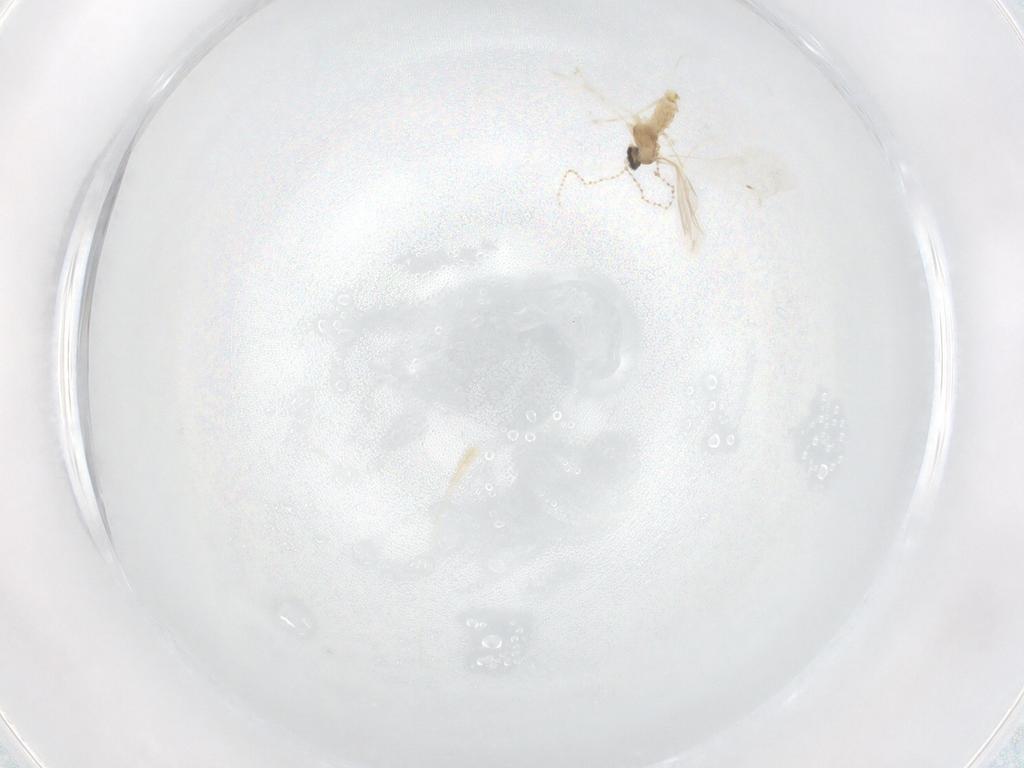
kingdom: Animalia
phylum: Arthropoda
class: Insecta
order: Diptera
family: Cecidomyiidae
